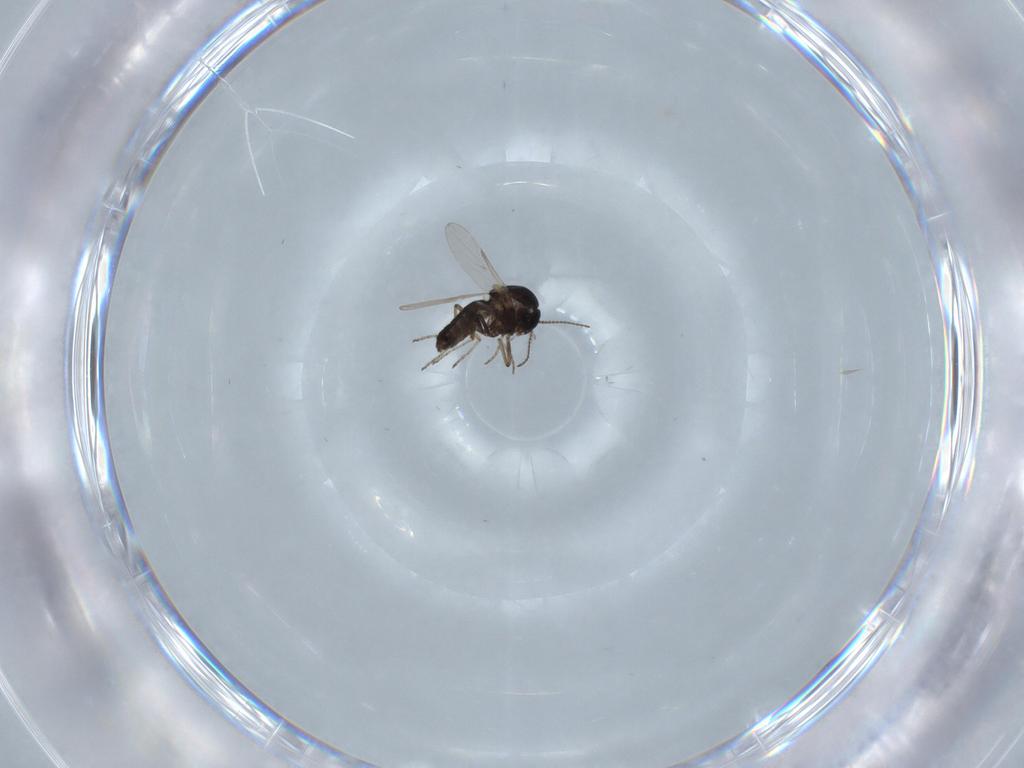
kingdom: Animalia
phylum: Arthropoda
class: Insecta
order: Diptera
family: Ceratopogonidae
